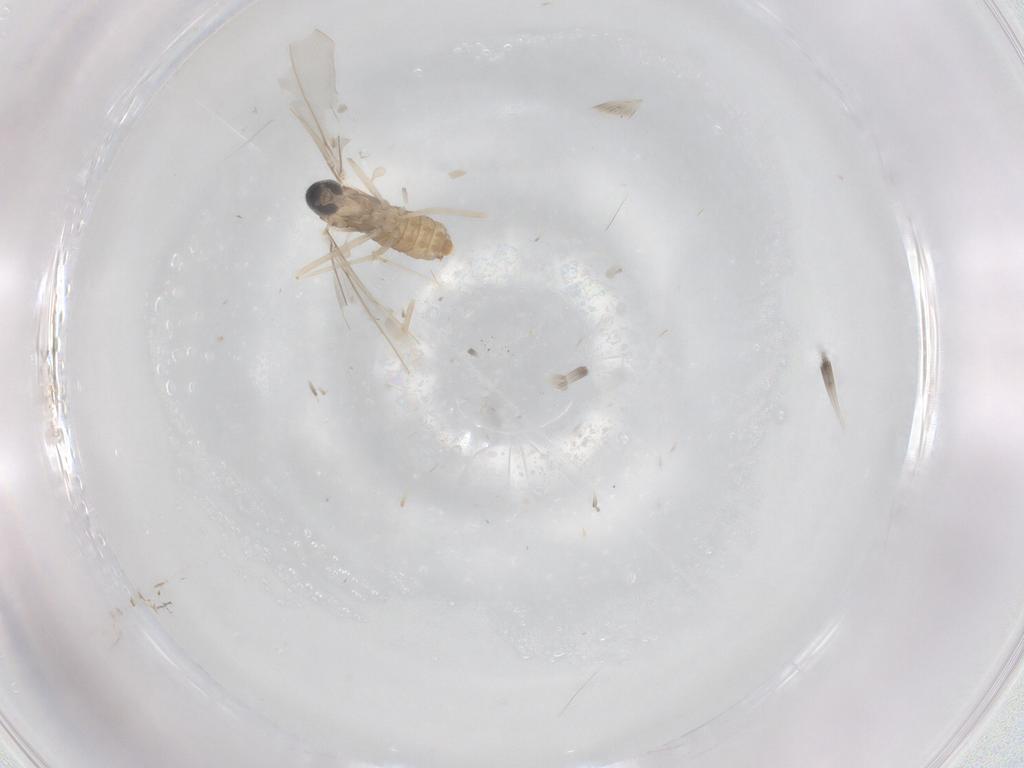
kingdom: Animalia
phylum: Arthropoda
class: Insecta
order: Diptera
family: Cecidomyiidae
